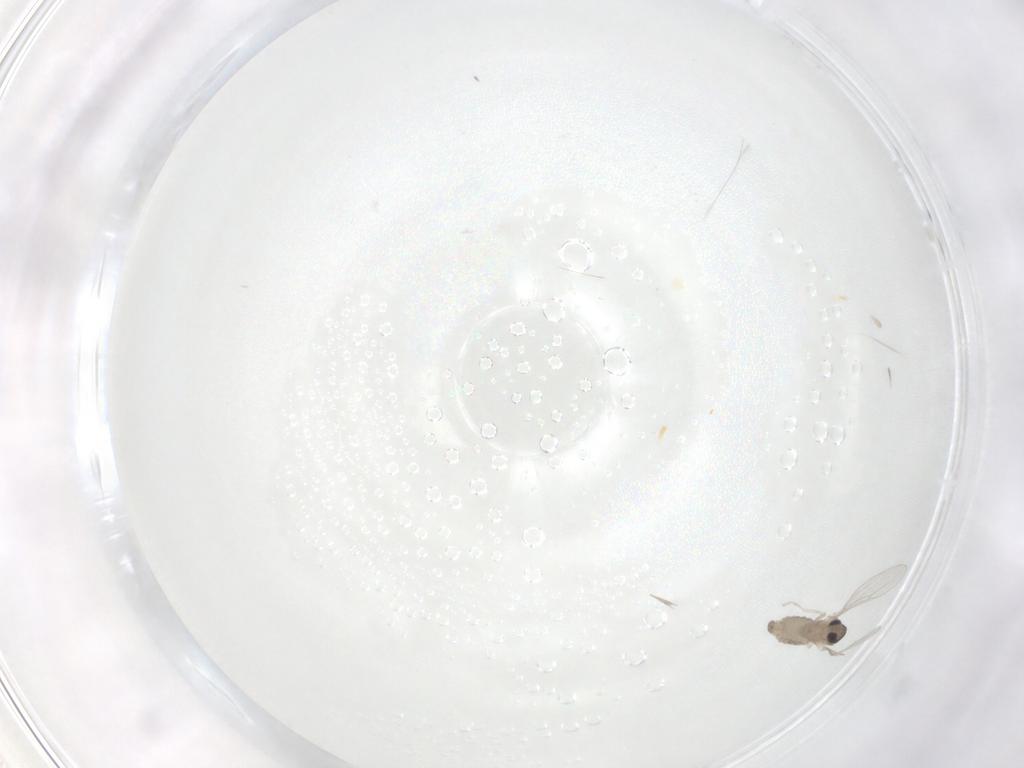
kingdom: Animalia
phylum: Arthropoda
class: Insecta
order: Diptera
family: Cecidomyiidae
